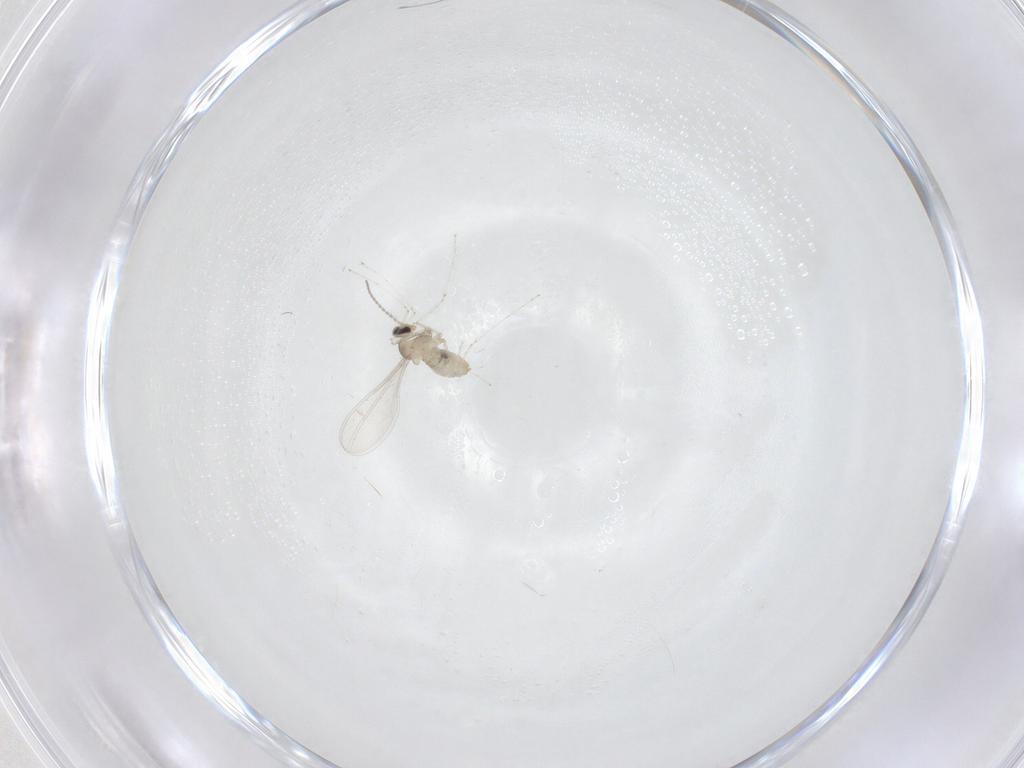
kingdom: Animalia
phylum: Arthropoda
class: Insecta
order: Diptera
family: Cecidomyiidae
